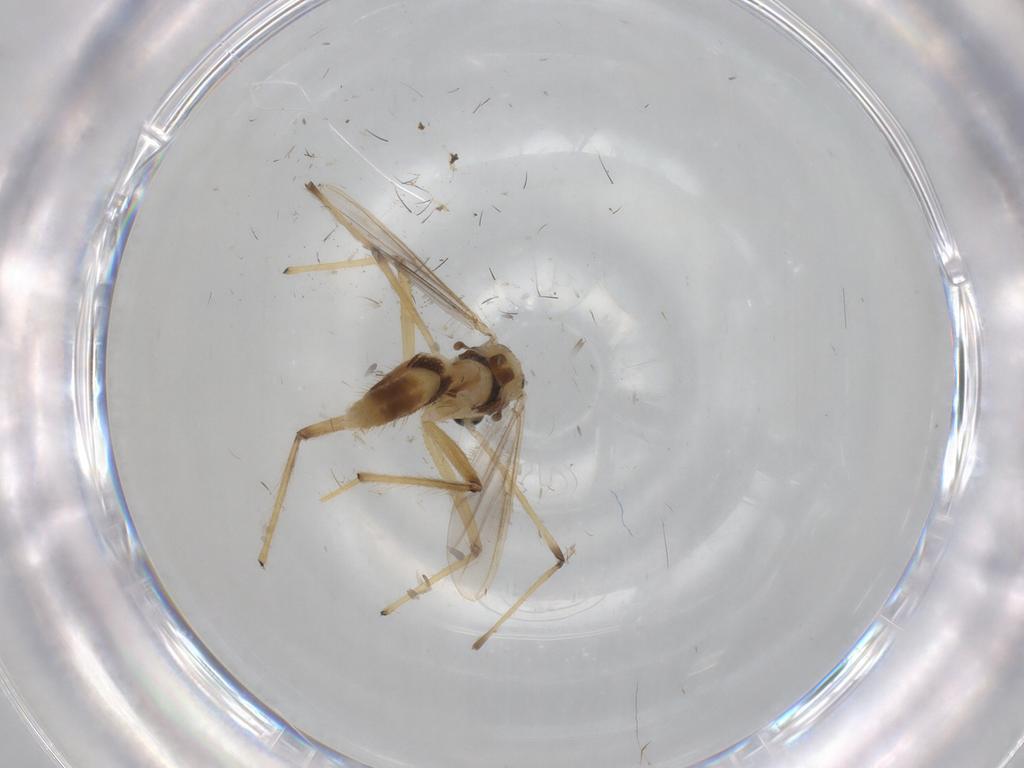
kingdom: Animalia
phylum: Arthropoda
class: Insecta
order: Diptera
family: Chironomidae
